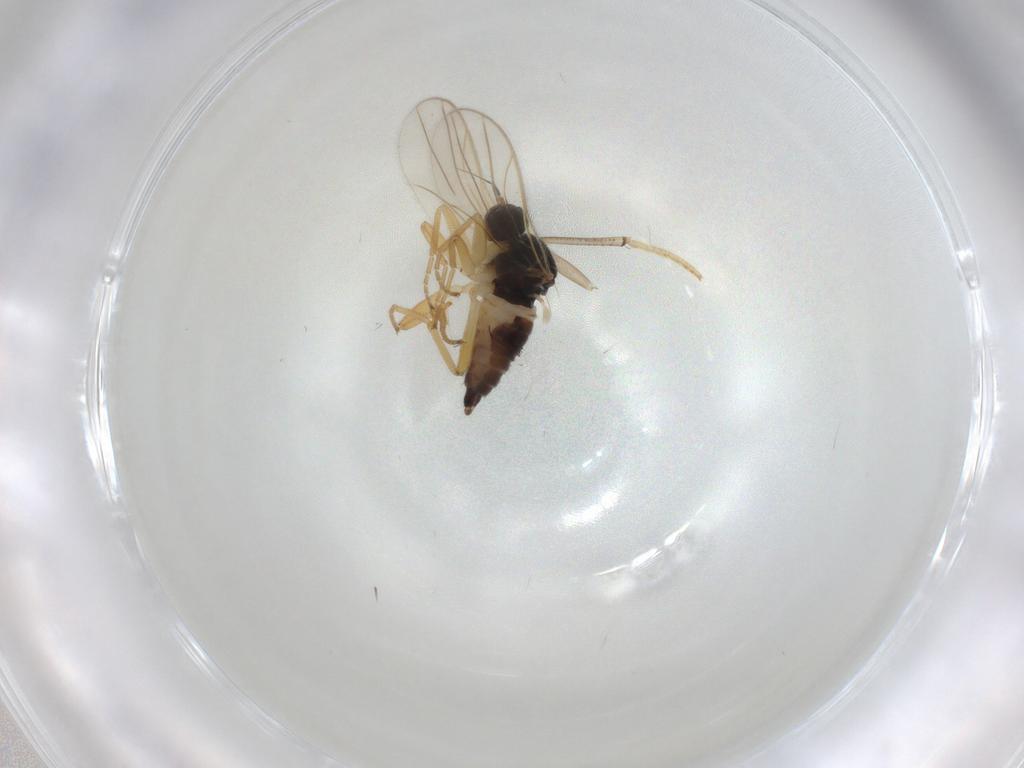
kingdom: Animalia
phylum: Arthropoda
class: Insecta
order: Diptera
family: Hybotidae
